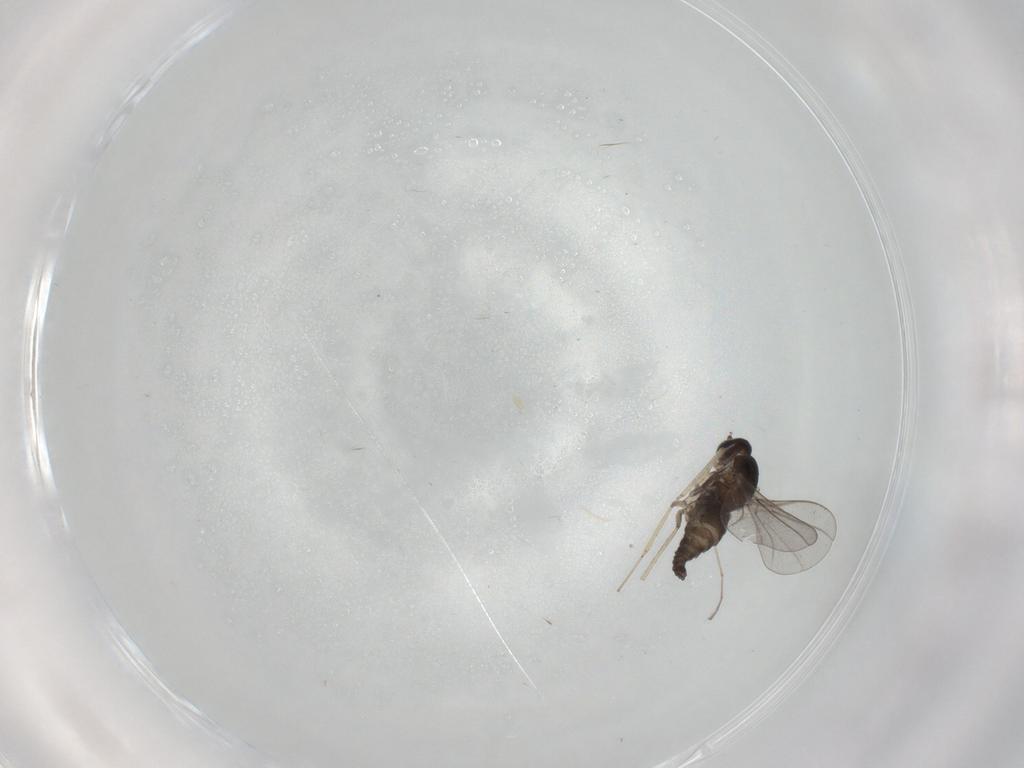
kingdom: Animalia
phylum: Arthropoda
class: Insecta
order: Diptera
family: Cecidomyiidae
